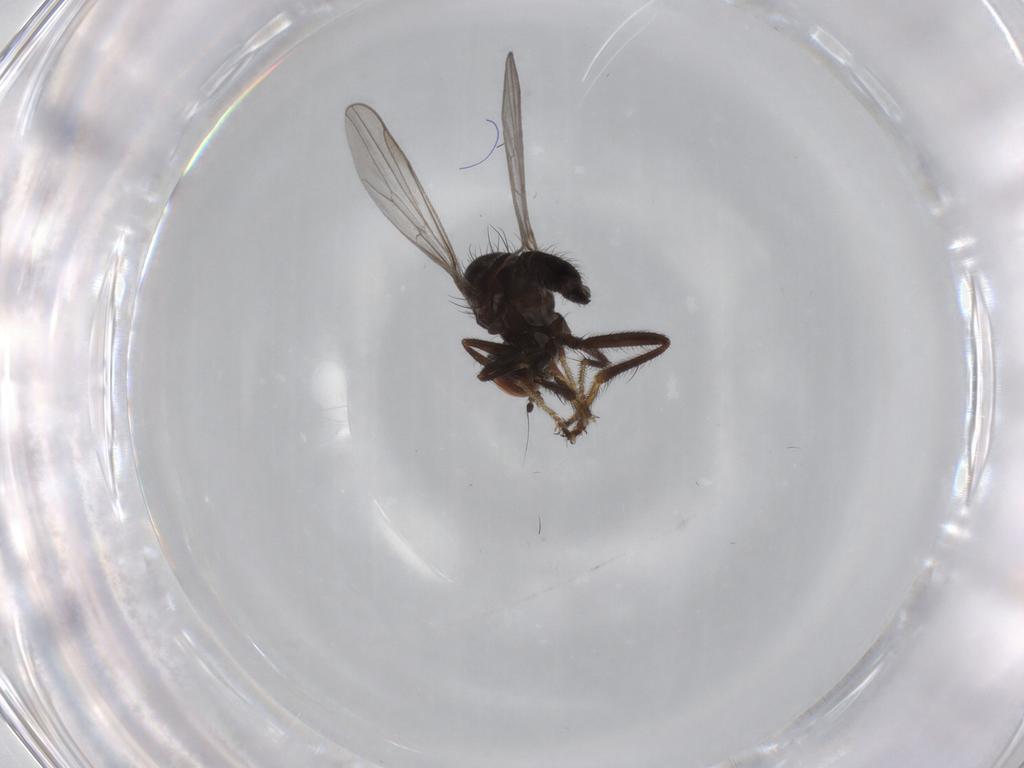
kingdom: Animalia
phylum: Arthropoda
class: Insecta
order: Diptera
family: Hybotidae
